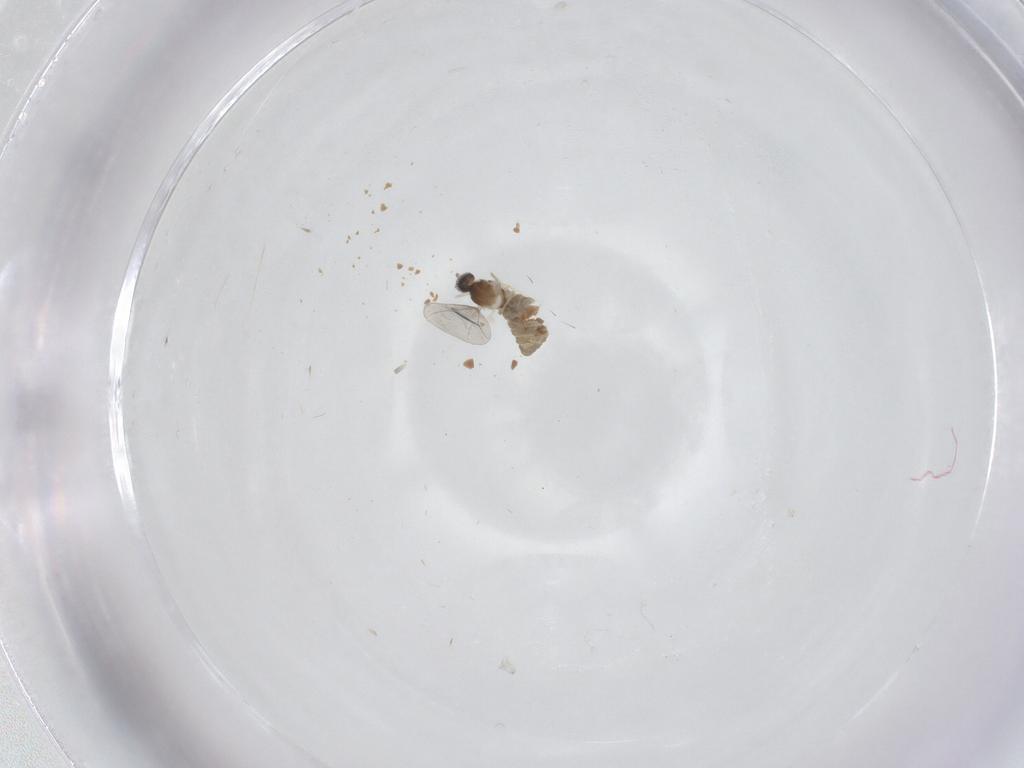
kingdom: Animalia
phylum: Arthropoda
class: Insecta
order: Diptera
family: Cecidomyiidae
